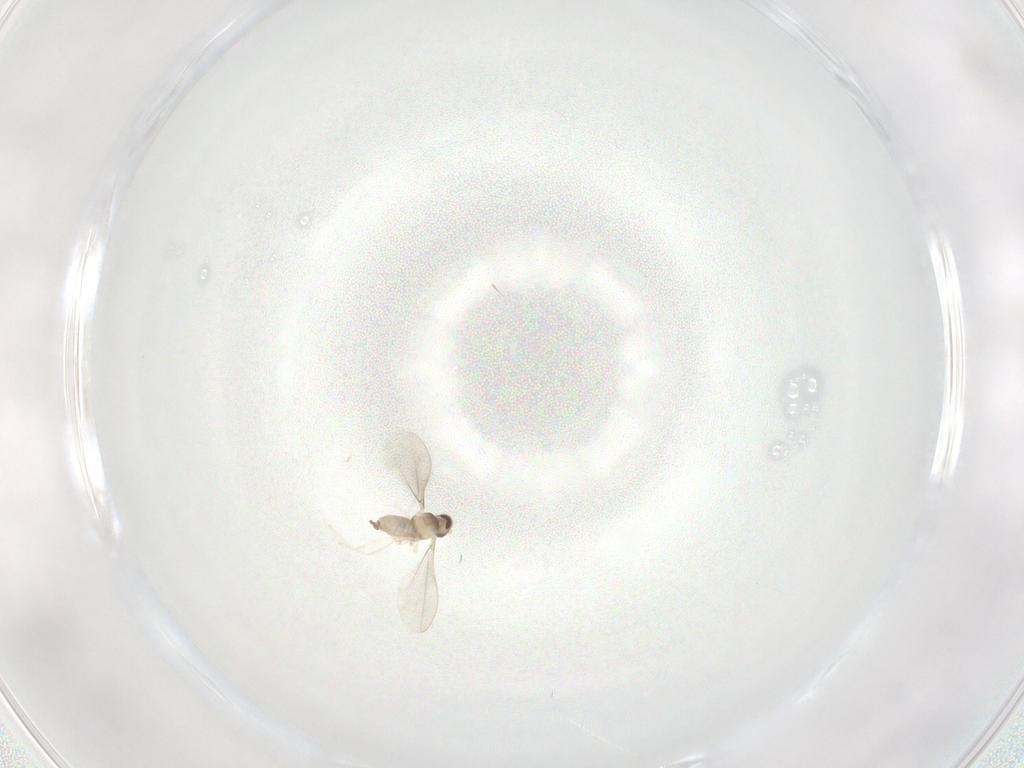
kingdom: Animalia
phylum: Arthropoda
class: Insecta
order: Diptera
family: Cecidomyiidae
